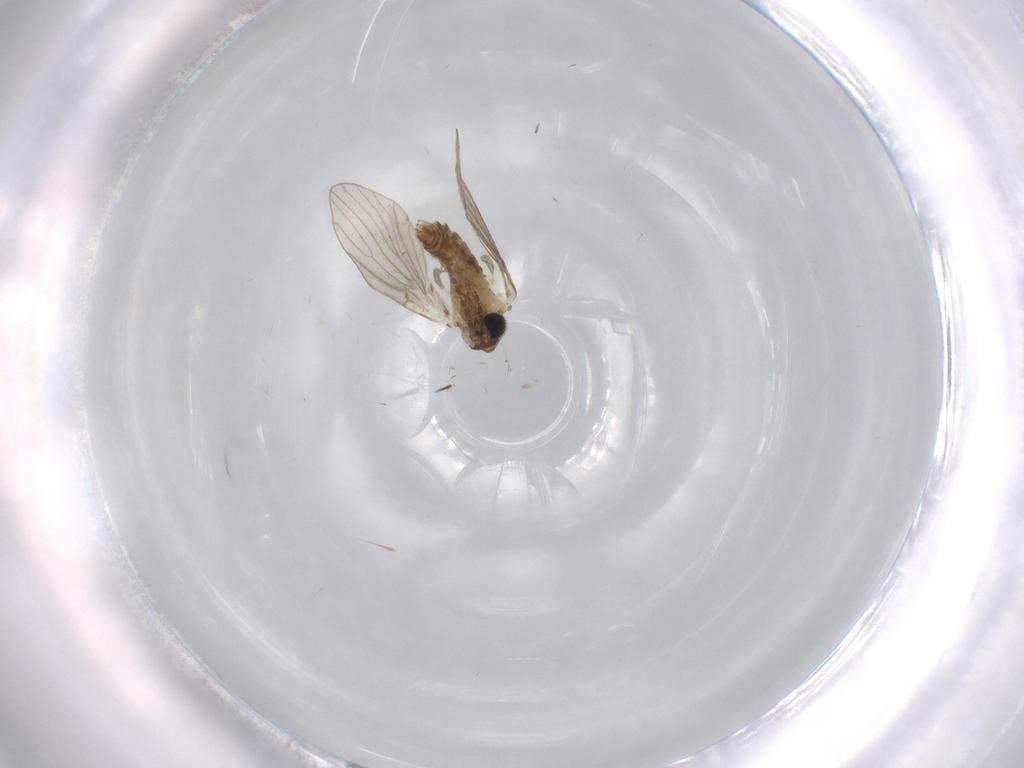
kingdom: Animalia
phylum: Arthropoda
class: Insecta
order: Diptera
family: Psychodidae
